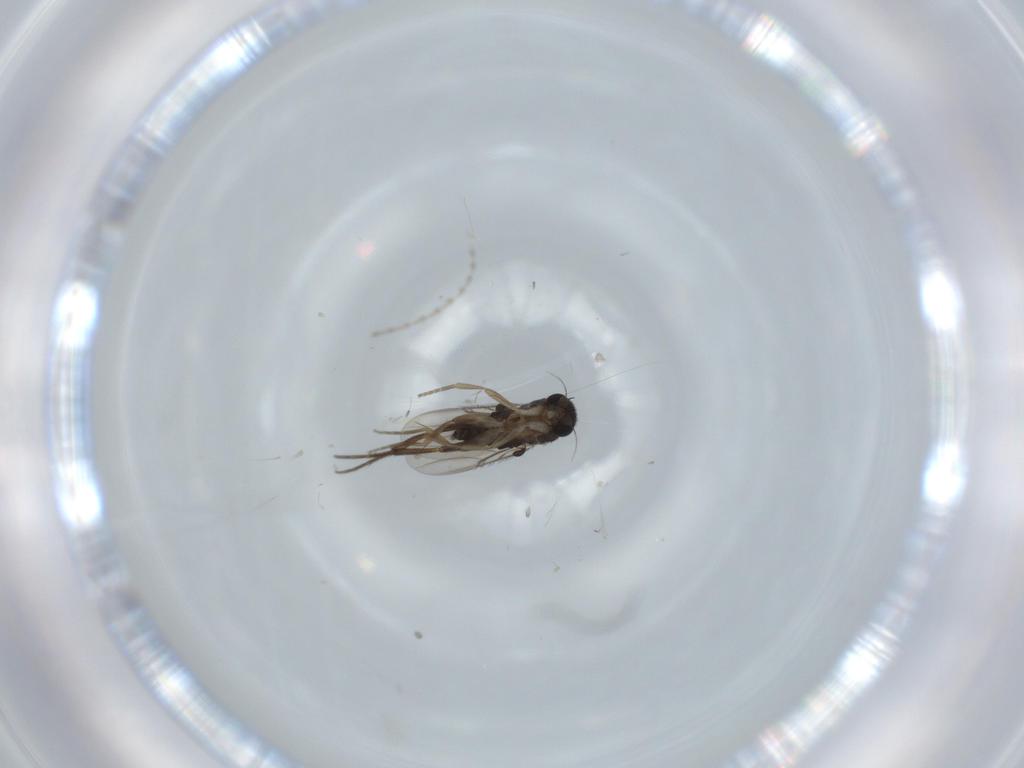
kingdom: Animalia
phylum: Arthropoda
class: Insecta
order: Diptera
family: Phoridae
